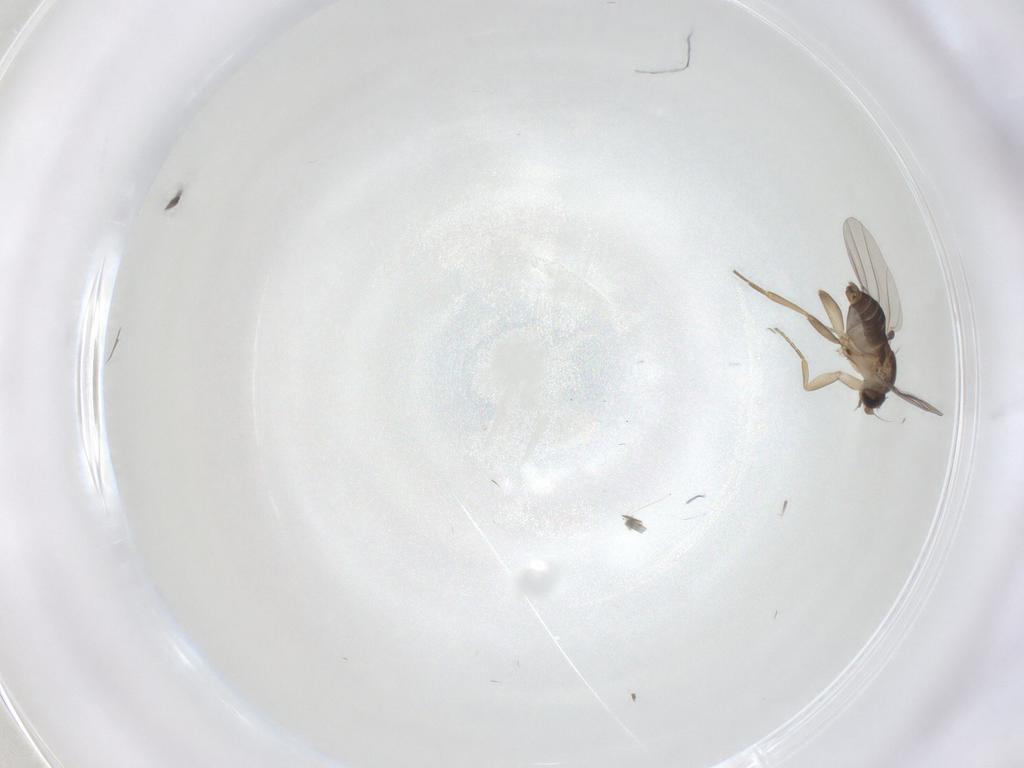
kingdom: Animalia
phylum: Arthropoda
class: Insecta
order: Diptera
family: Phoridae
